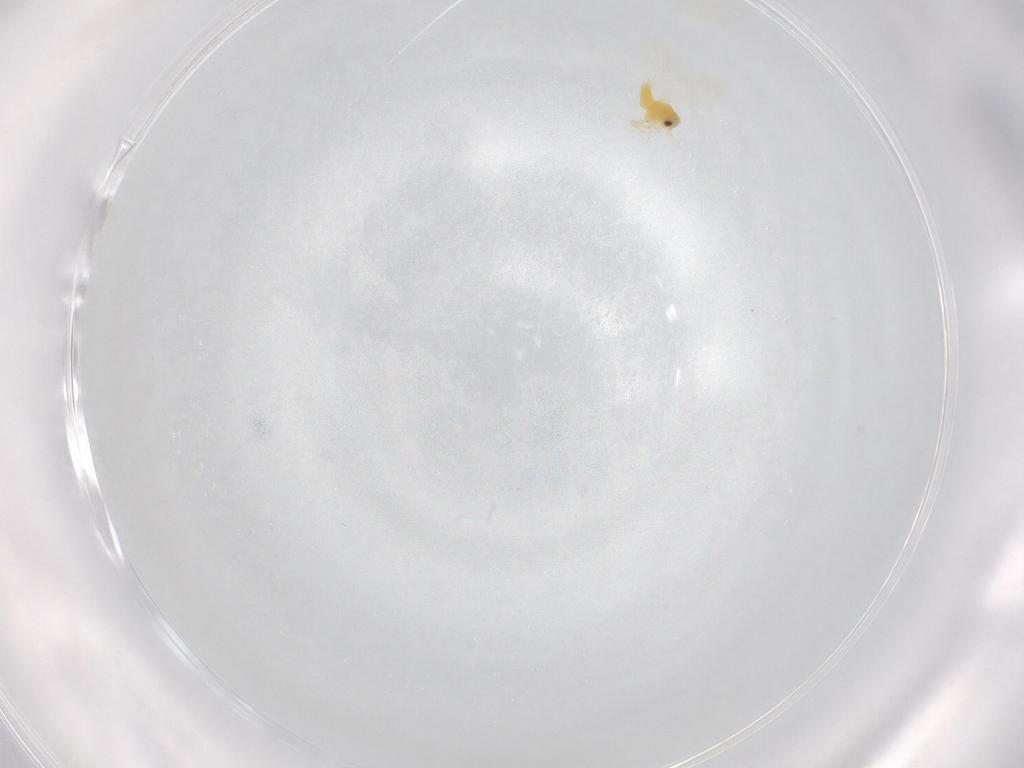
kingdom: Animalia
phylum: Arthropoda
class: Insecta
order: Hemiptera
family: Aleyrodidae
